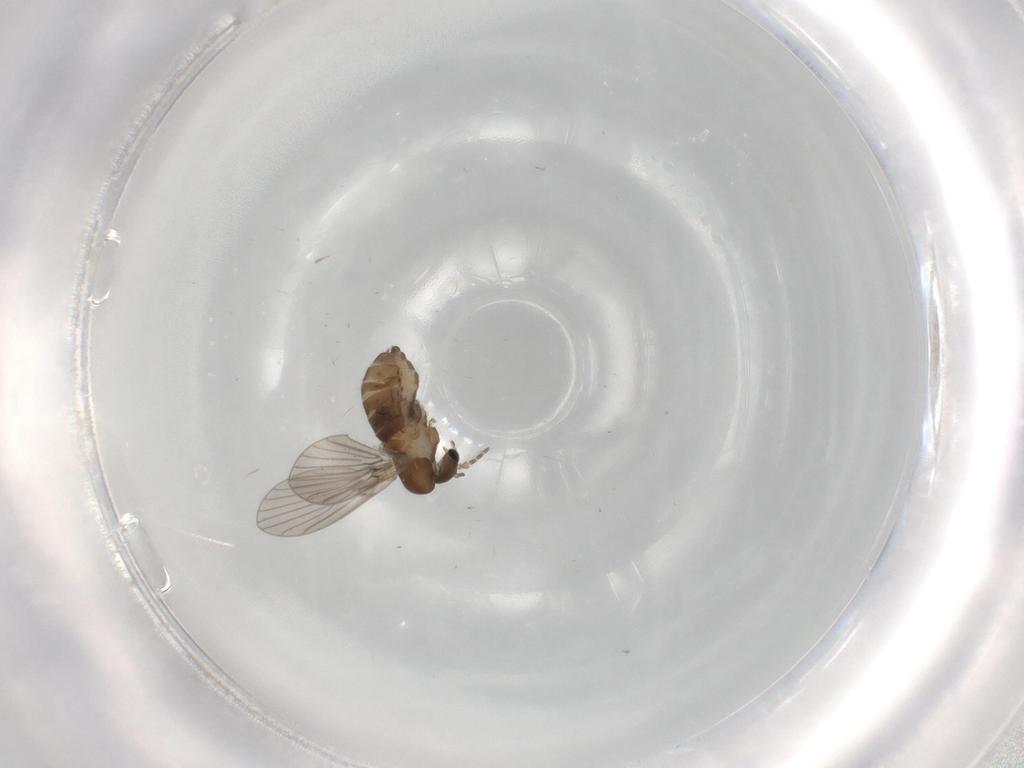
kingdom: Animalia
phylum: Arthropoda
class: Insecta
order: Diptera
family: Psychodidae
